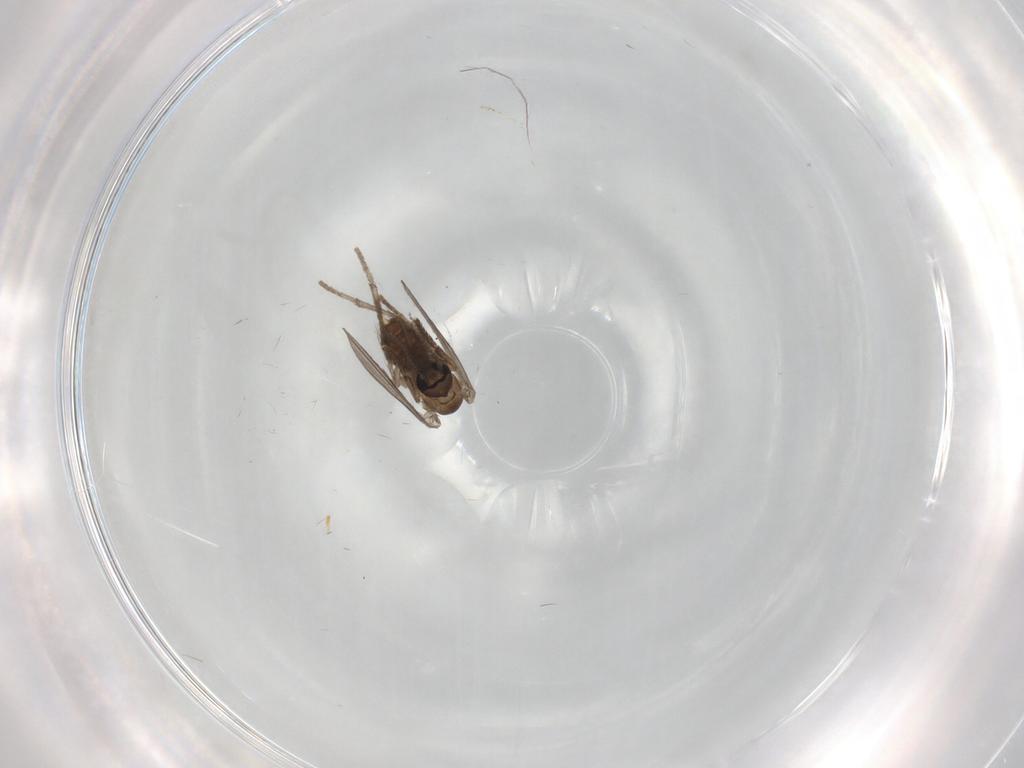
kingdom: Animalia
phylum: Arthropoda
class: Insecta
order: Diptera
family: Psychodidae
